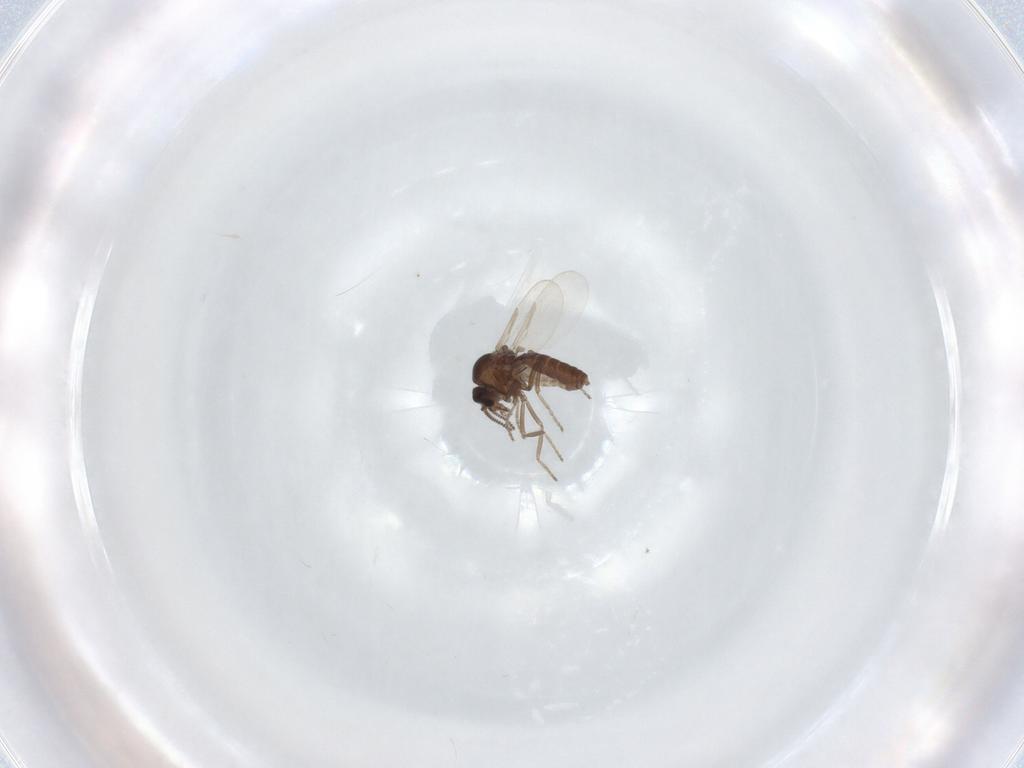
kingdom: Animalia
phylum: Arthropoda
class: Insecta
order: Diptera
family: Ceratopogonidae
